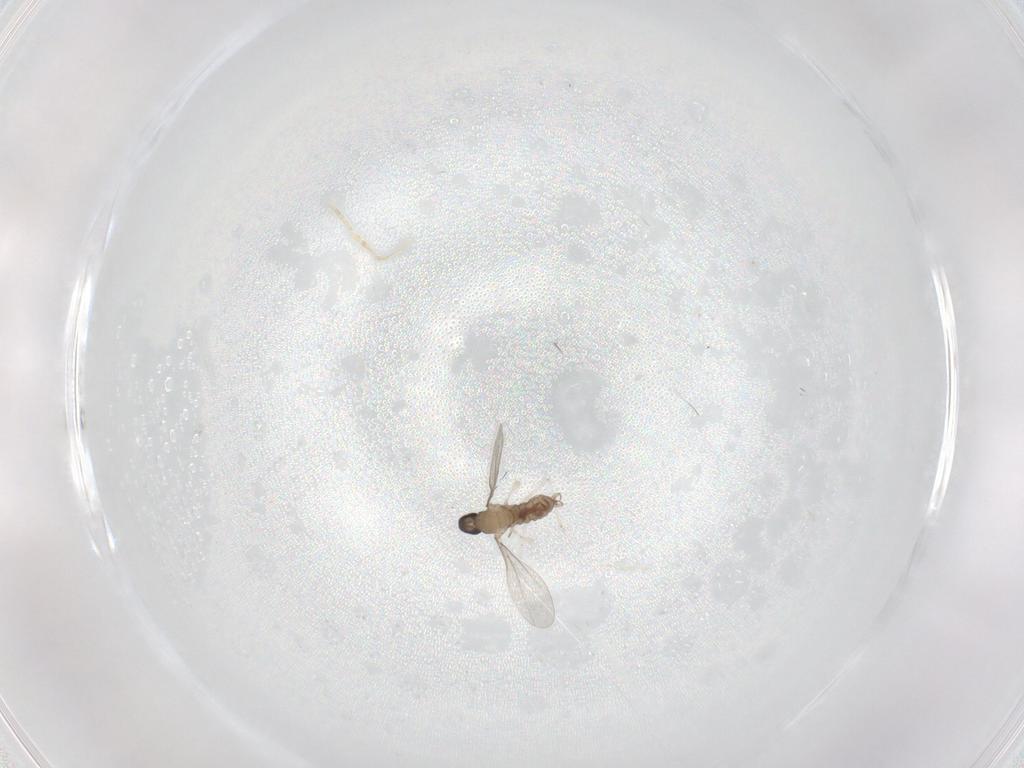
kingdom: Animalia
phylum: Arthropoda
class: Insecta
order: Diptera
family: Cecidomyiidae
